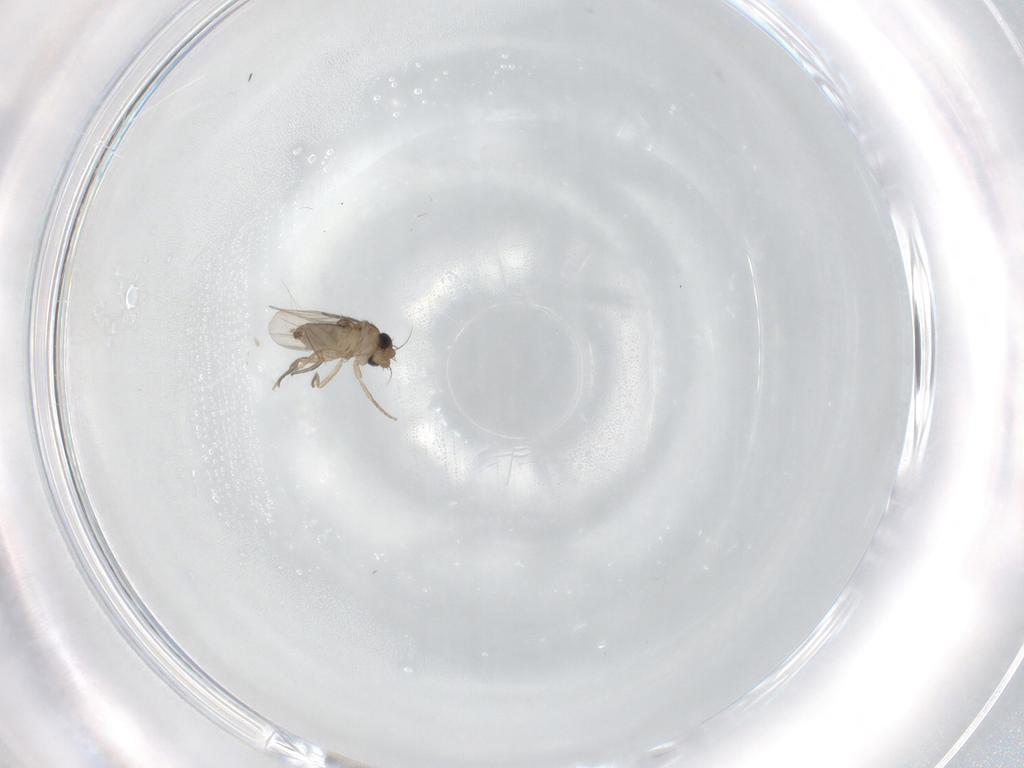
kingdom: Animalia
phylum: Arthropoda
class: Insecta
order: Diptera
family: Phoridae
